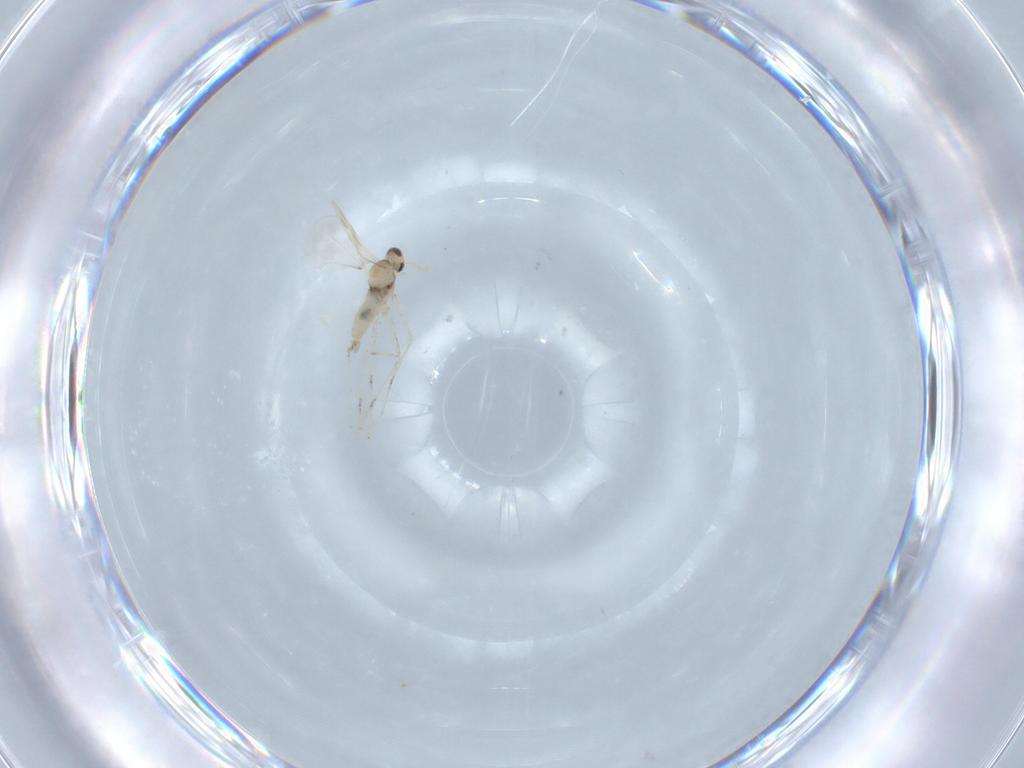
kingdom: Animalia
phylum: Arthropoda
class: Insecta
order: Diptera
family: Cecidomyiidae
